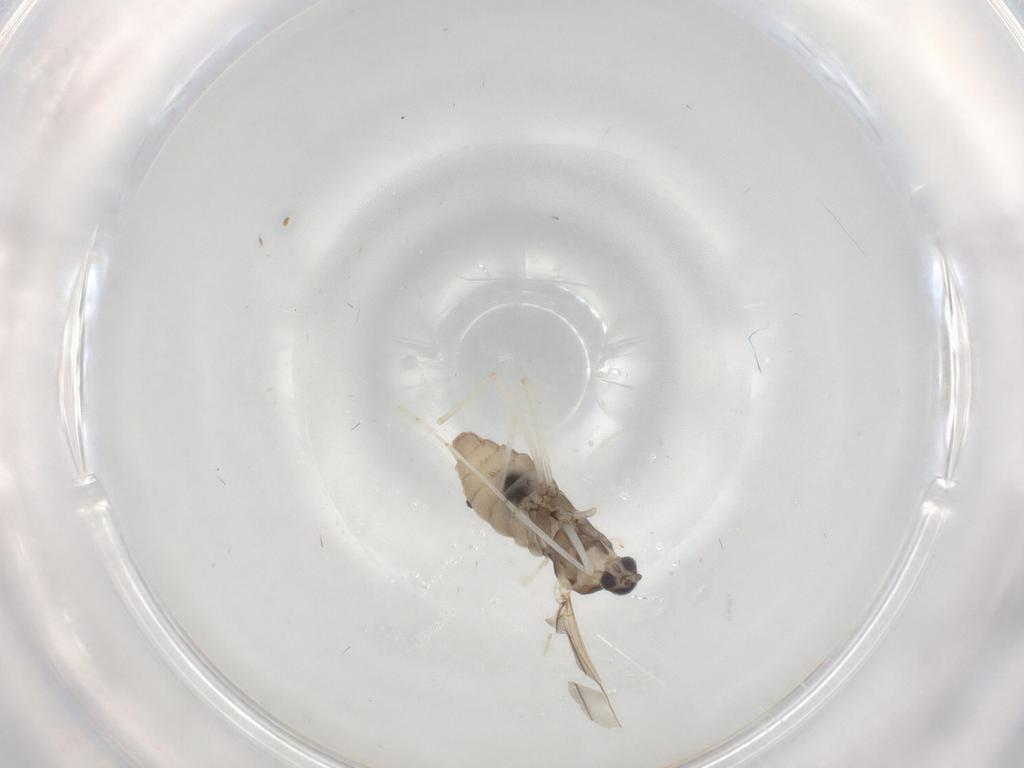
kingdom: Animalia
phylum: Arthropoda
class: Insecta
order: Diptera
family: Cecidomyiidae
